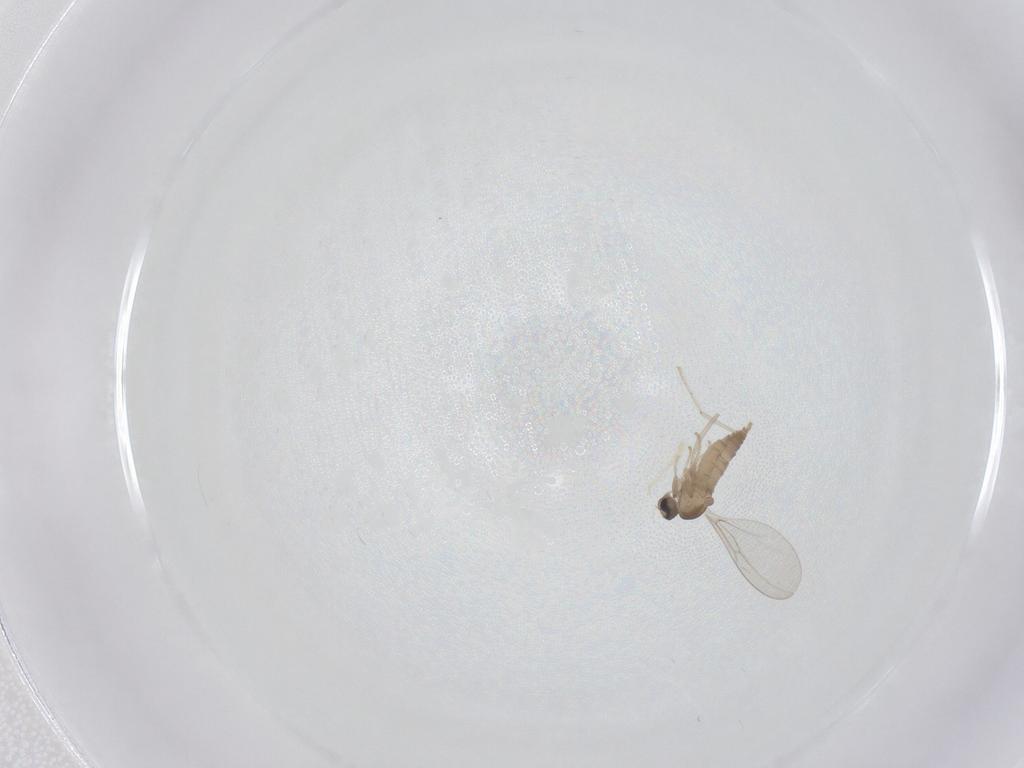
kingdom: Animalia
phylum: Arthropoda
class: Insecta
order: Diptera
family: Cecidomyiidae
